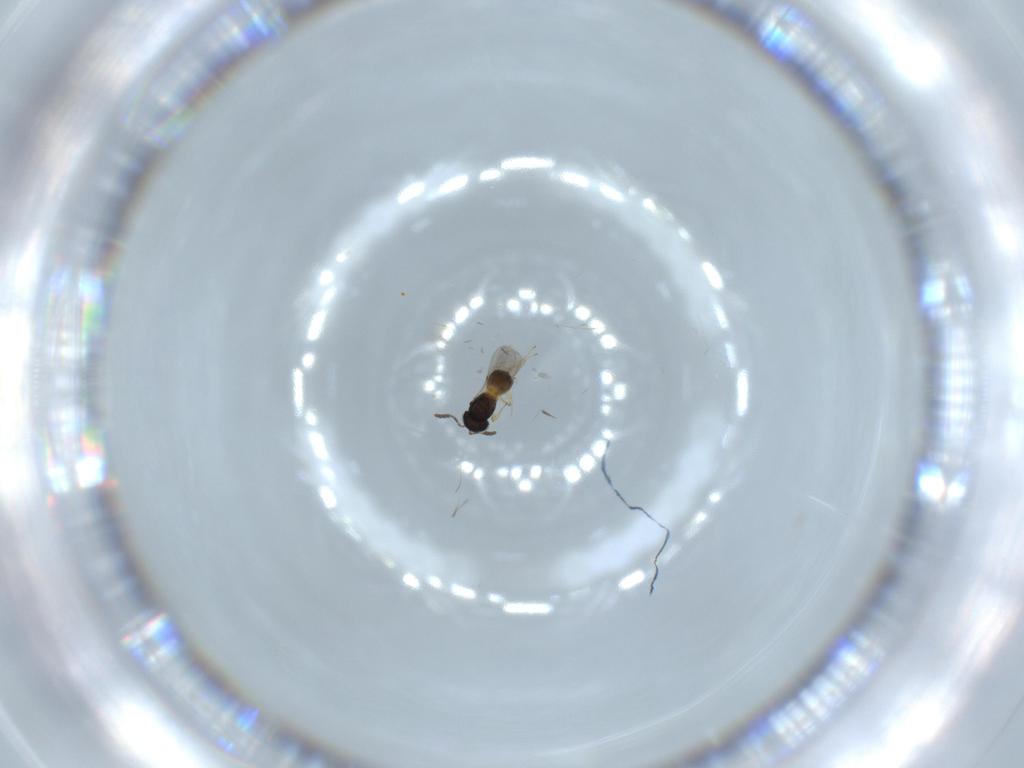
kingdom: Animalia
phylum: Arthropoda
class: Insecta
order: Hymenoptera
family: Diapriidae
